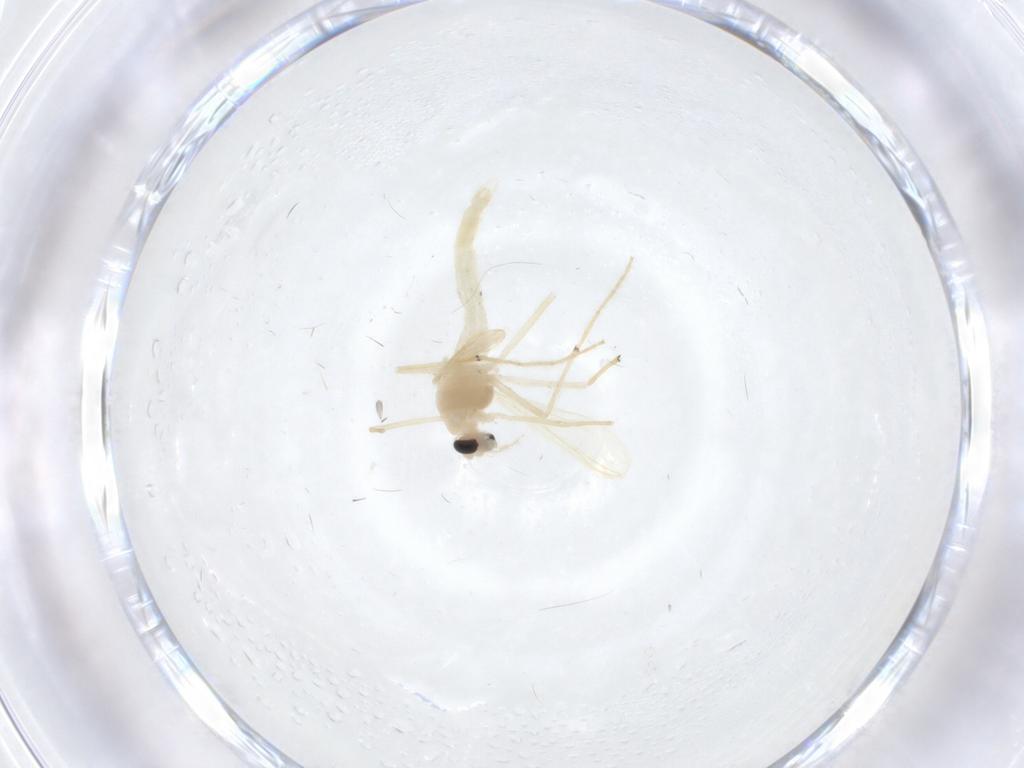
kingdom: Animalia
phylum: Arthropoda
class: Insecta
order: Diptera
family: Chironomidae
